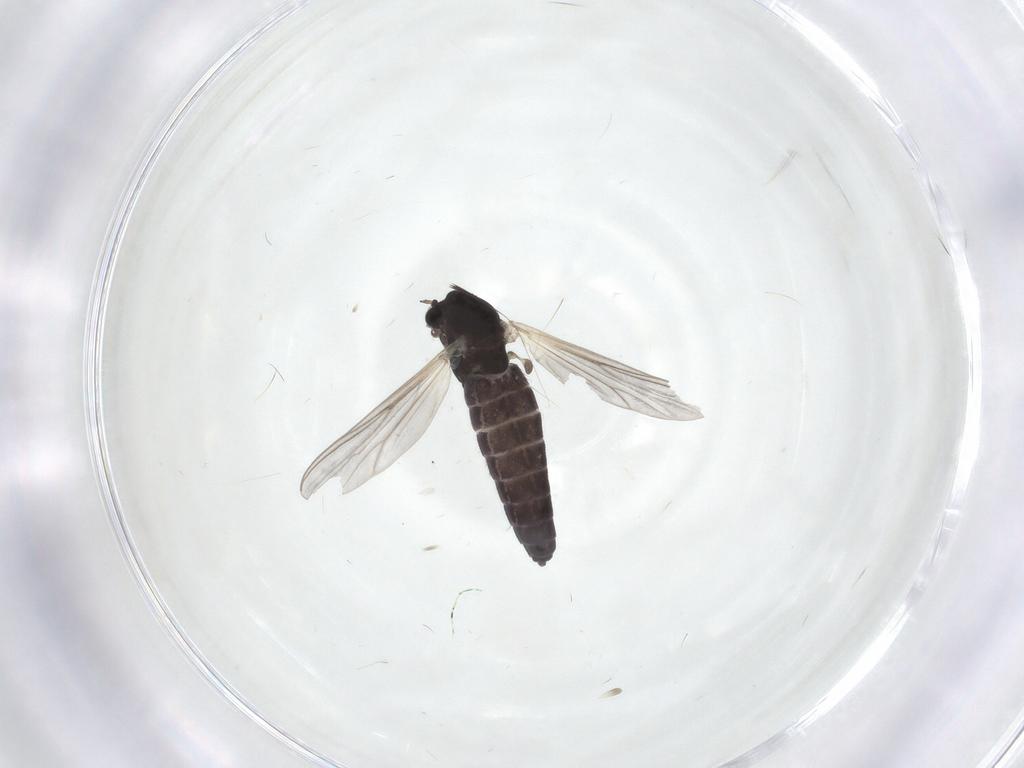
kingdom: Animalia
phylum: Arthropoda
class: Insecta
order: Diptera
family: Chironomidae
